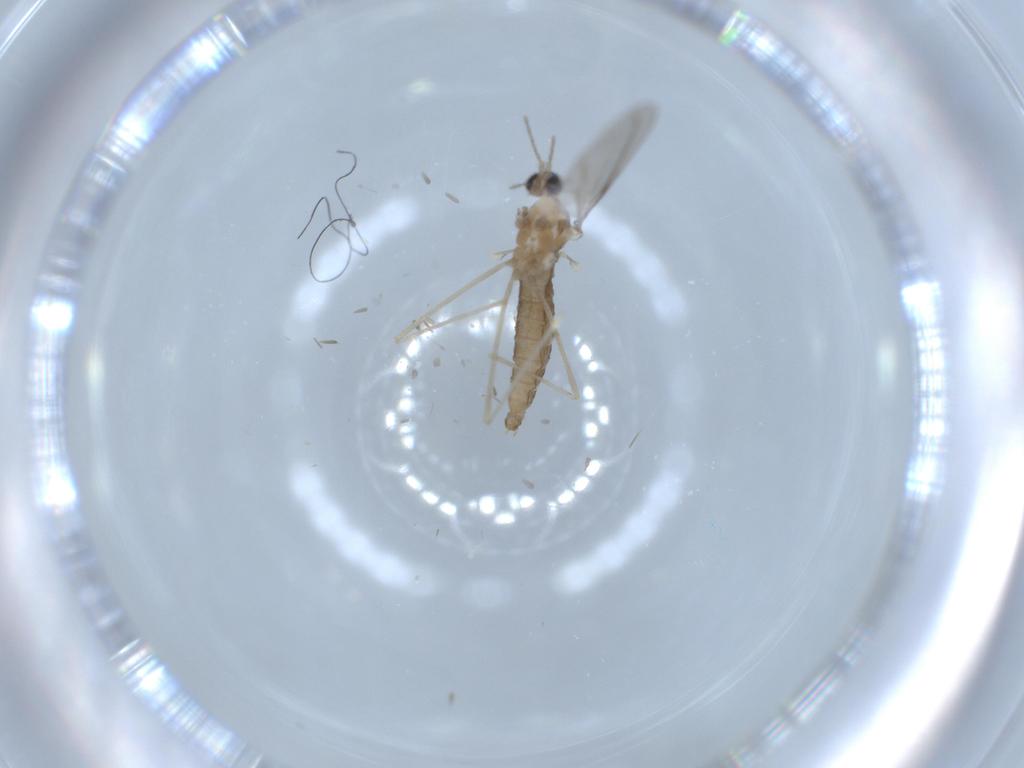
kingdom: Animalia
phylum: Arthropoda
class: Insecta
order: Diptera
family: Cecidomyiidae
